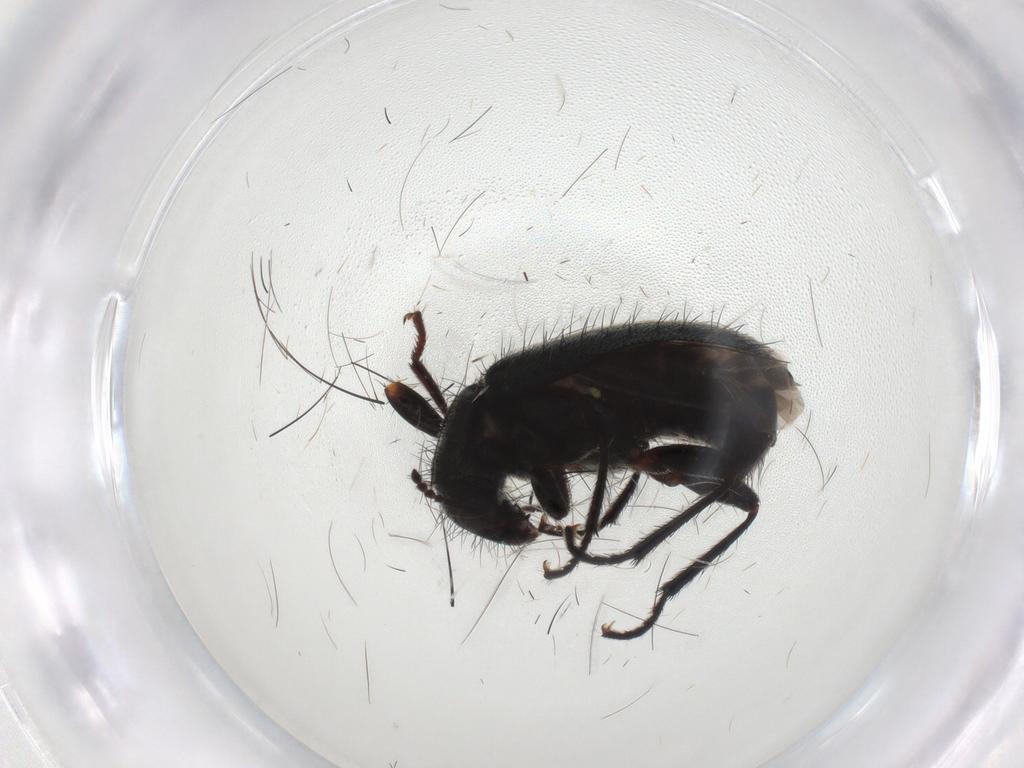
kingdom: Animalia
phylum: Arthropoda
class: Insecta
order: Coleoptera
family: Melyridae
